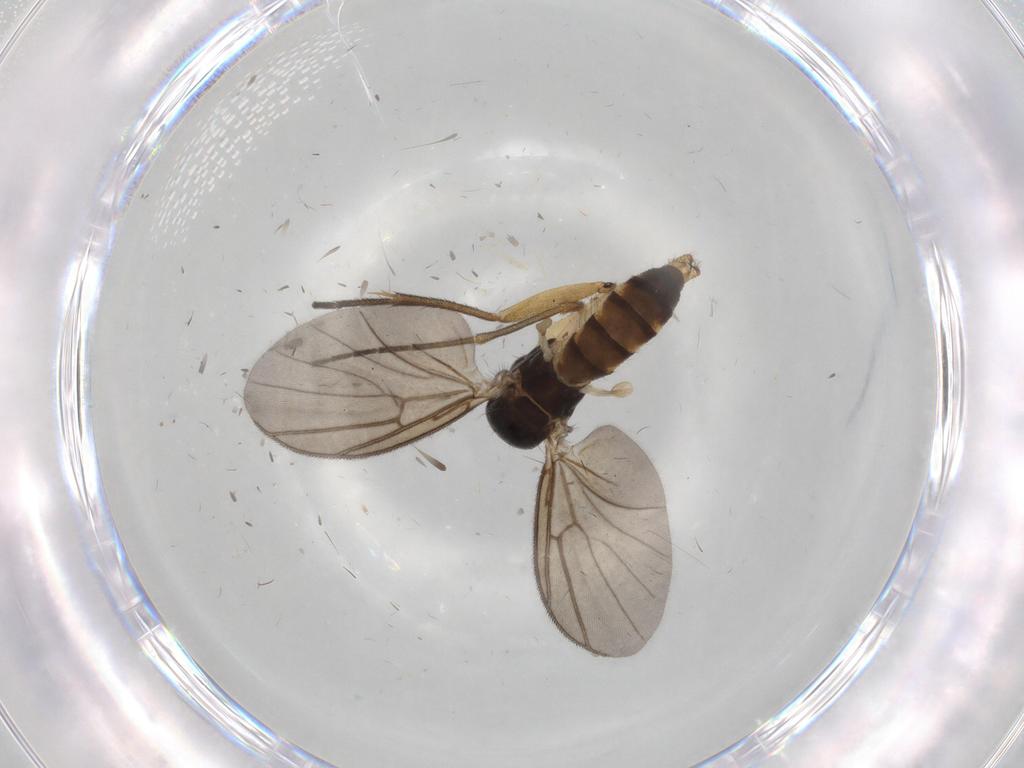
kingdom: Animalia
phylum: Arthropoda
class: Insecta
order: Diptera
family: Mycetophilidae
